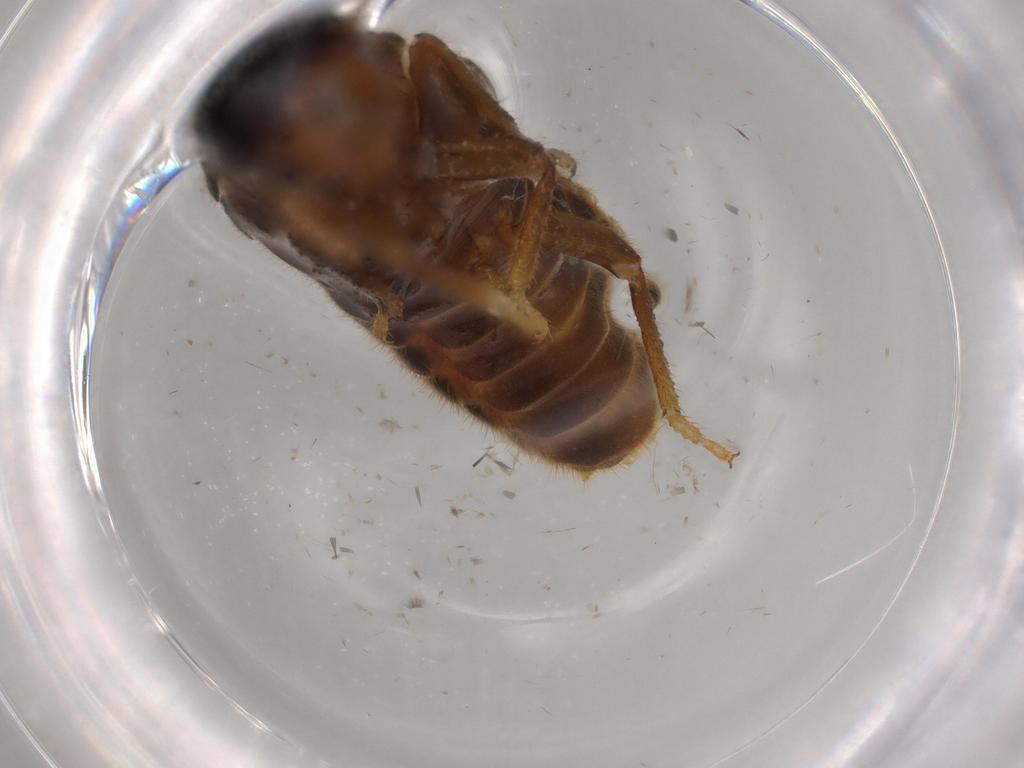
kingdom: Animalia
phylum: Arthropoda
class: Insecta
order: Blattodea
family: Termitidae
